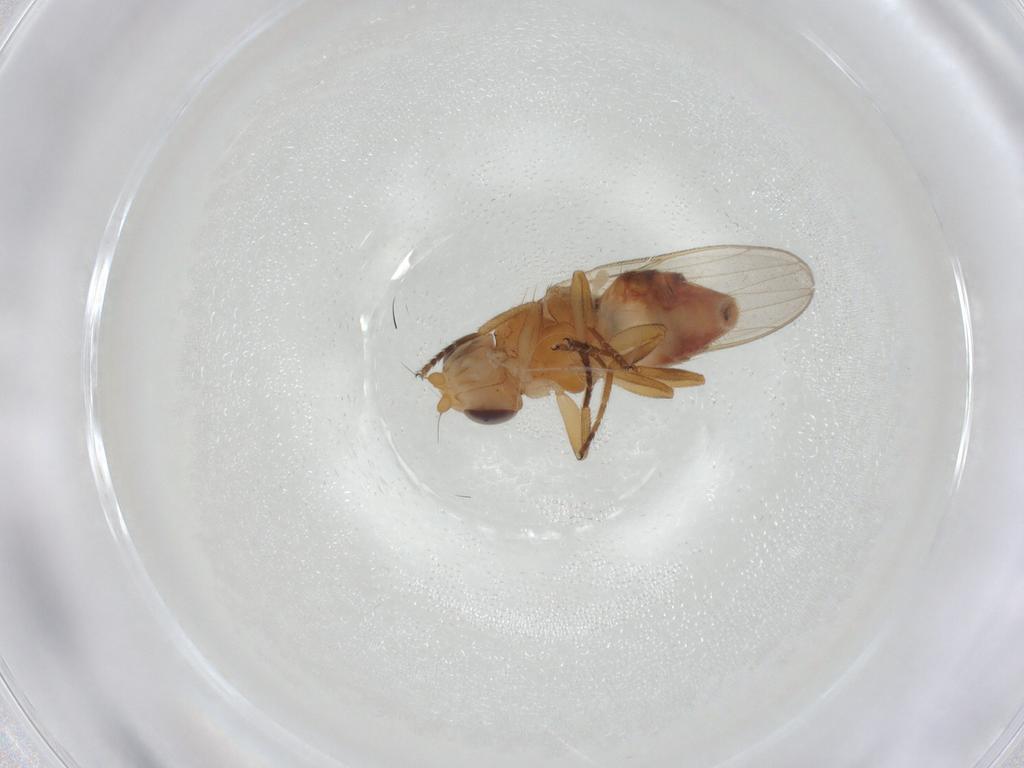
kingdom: Animalia
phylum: Arthropoda
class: Insecta
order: Diptera
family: Chloropidae
